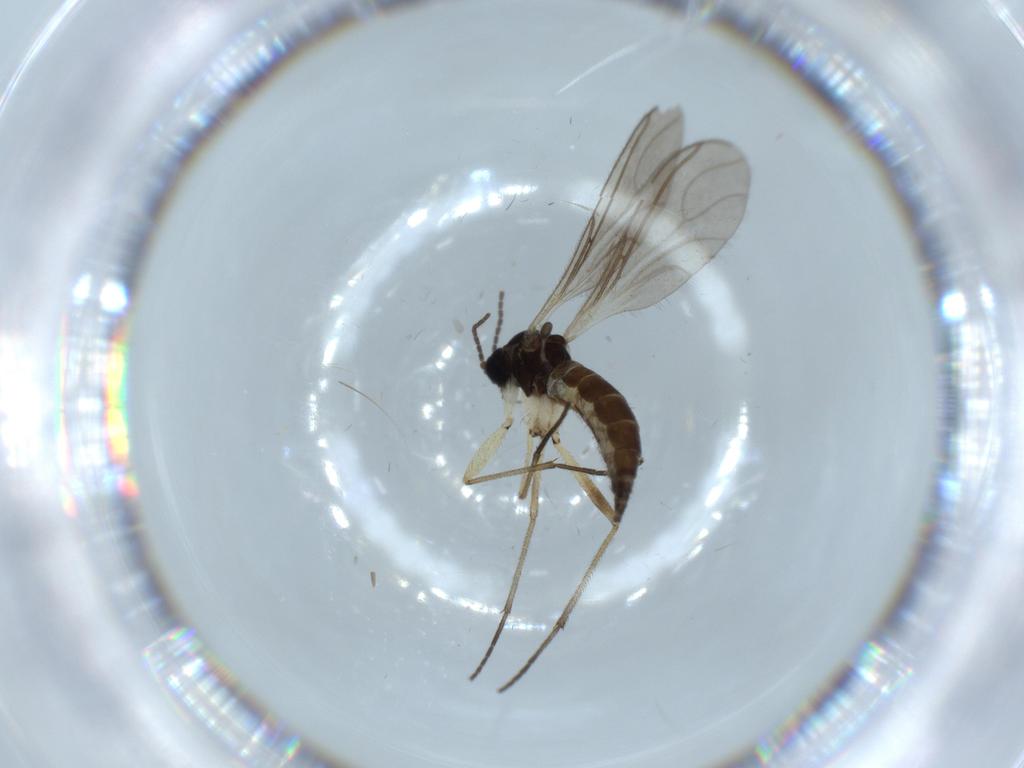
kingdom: Animalia
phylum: Arthropoda
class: Insecta
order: Diptera
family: Sciaridae
